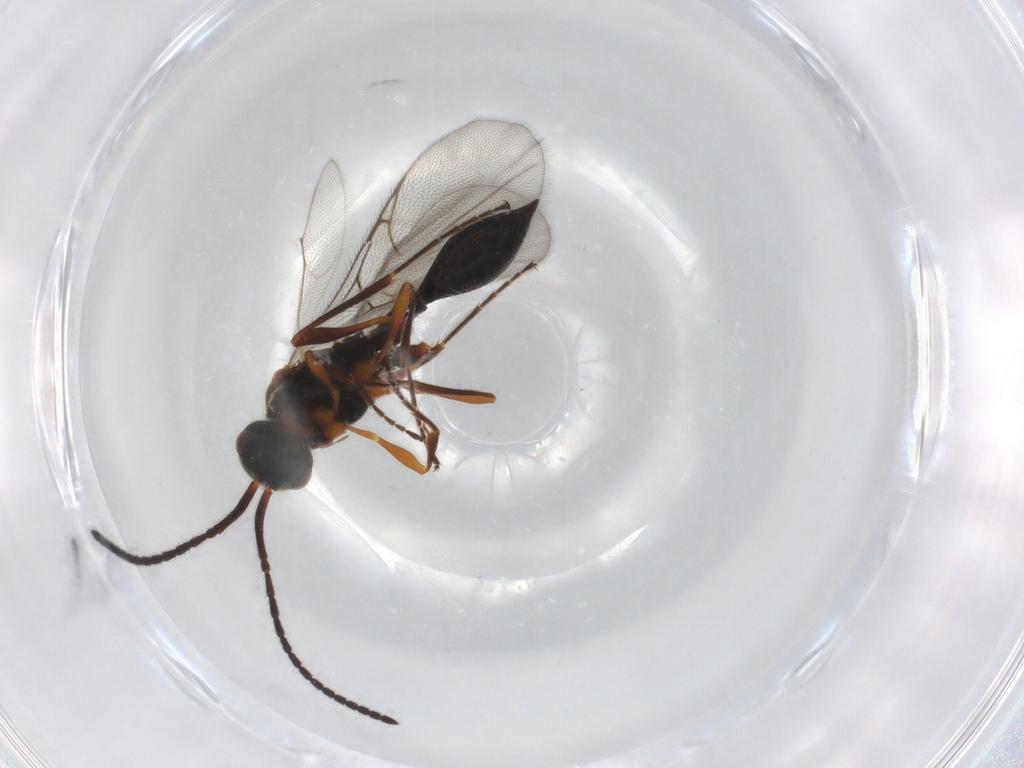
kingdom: Animalia
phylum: Arthropoda
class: Insecta
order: Hymenoptera
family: Diapriidae
